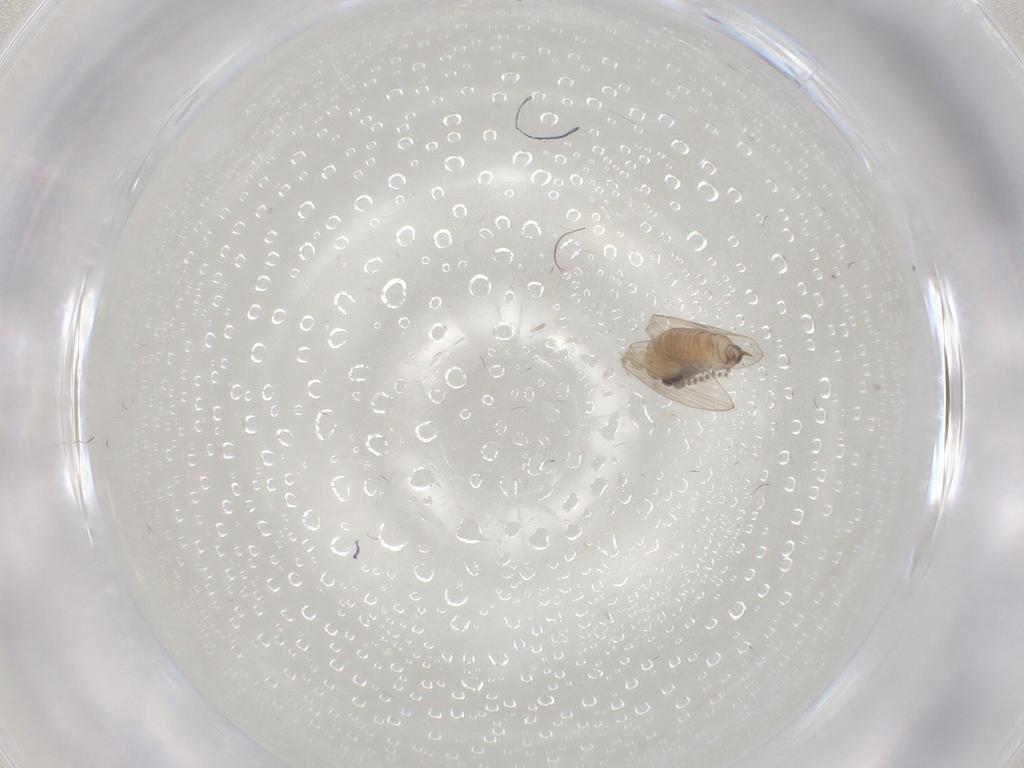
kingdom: Animalia
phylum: Arthropoda
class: Insecta
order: Diptera
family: Psychodidae
